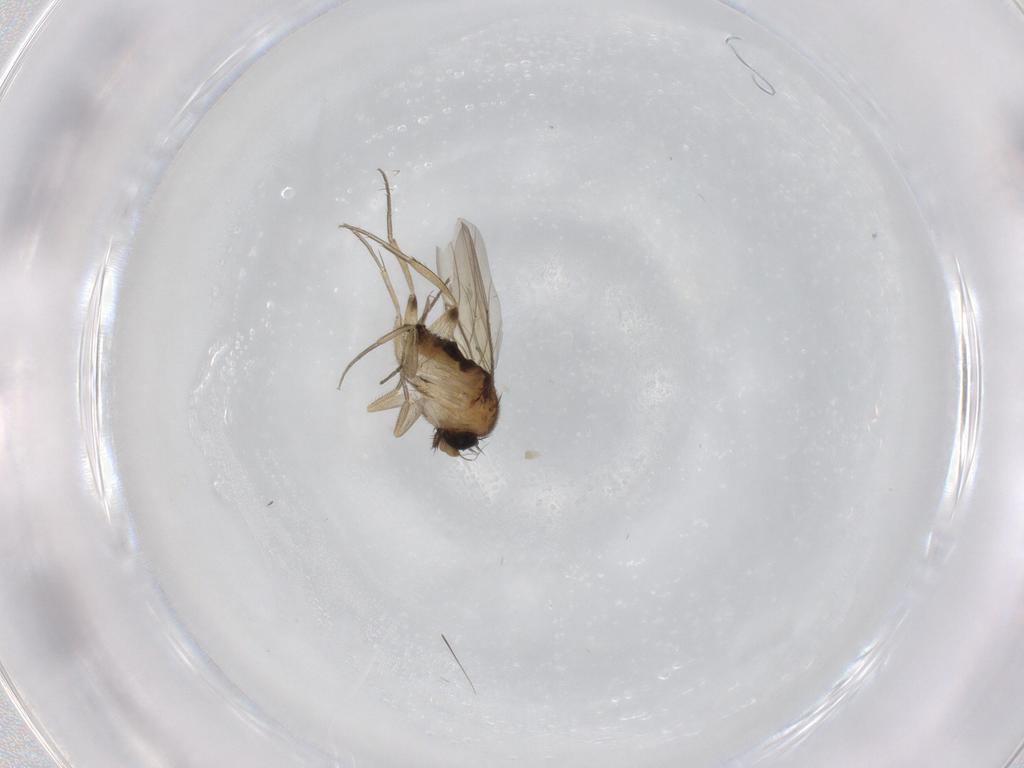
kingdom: Animalia
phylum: Arthropoda
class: Insecta
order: Diptera
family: Phoridae
